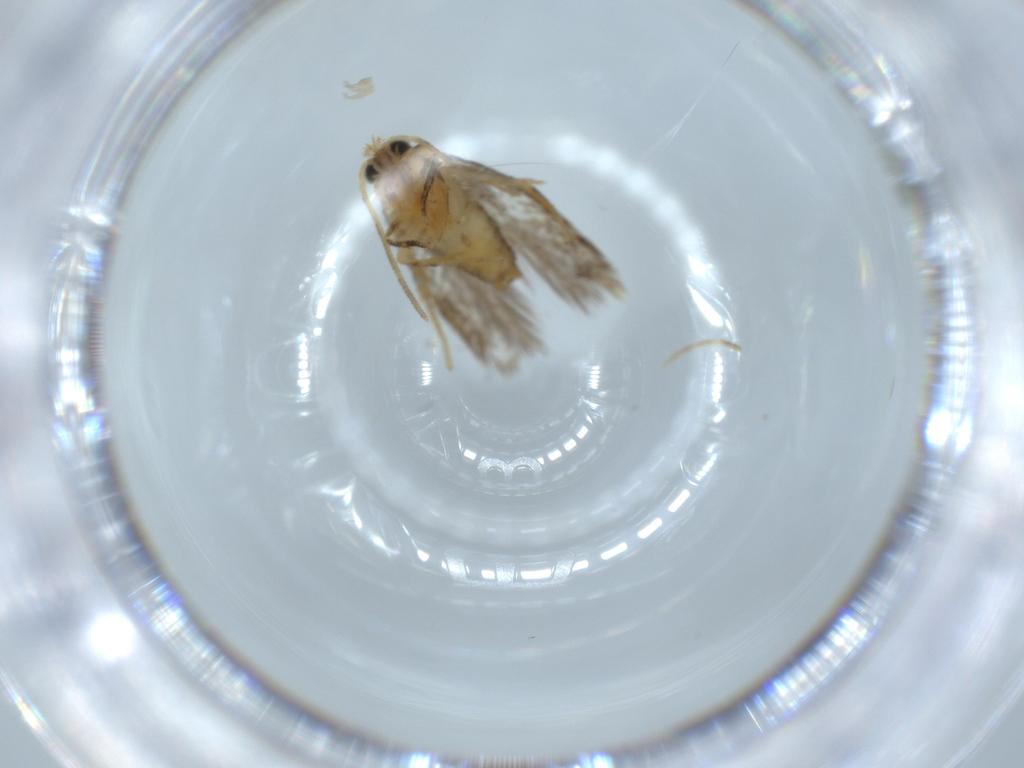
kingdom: Animalia
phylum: Arthropoda
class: Insecta
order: Lepidoptera
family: Nepticulidae
